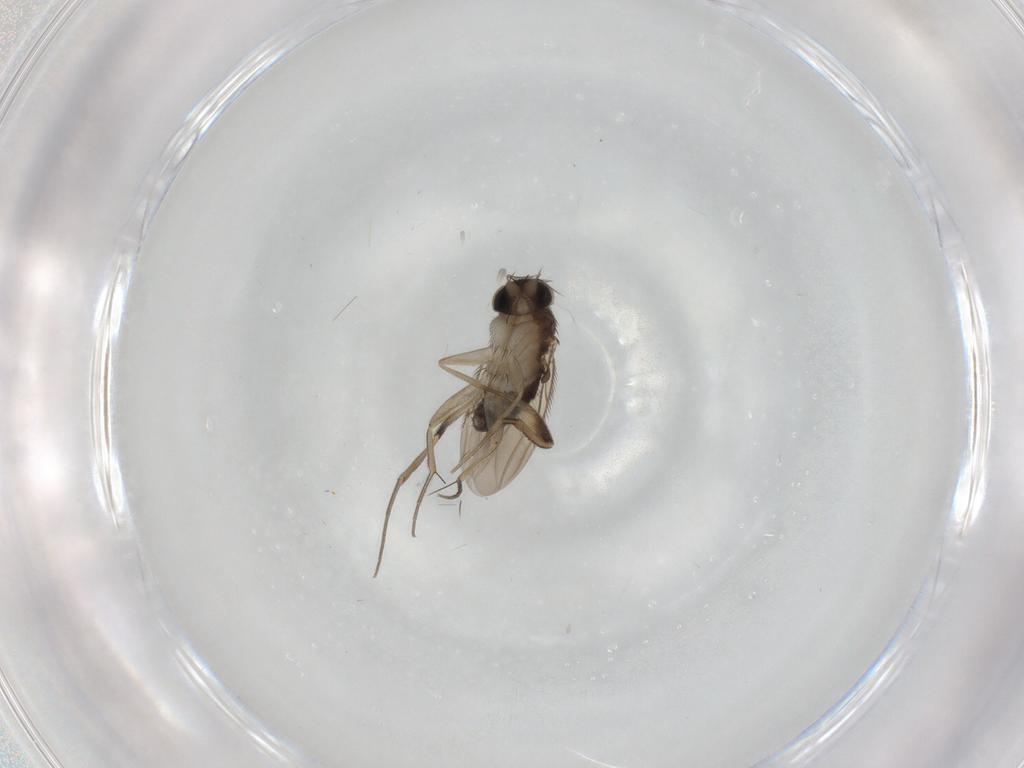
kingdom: Animalia
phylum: Arthropoda
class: Insecta
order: Diptera
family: Phoridae
